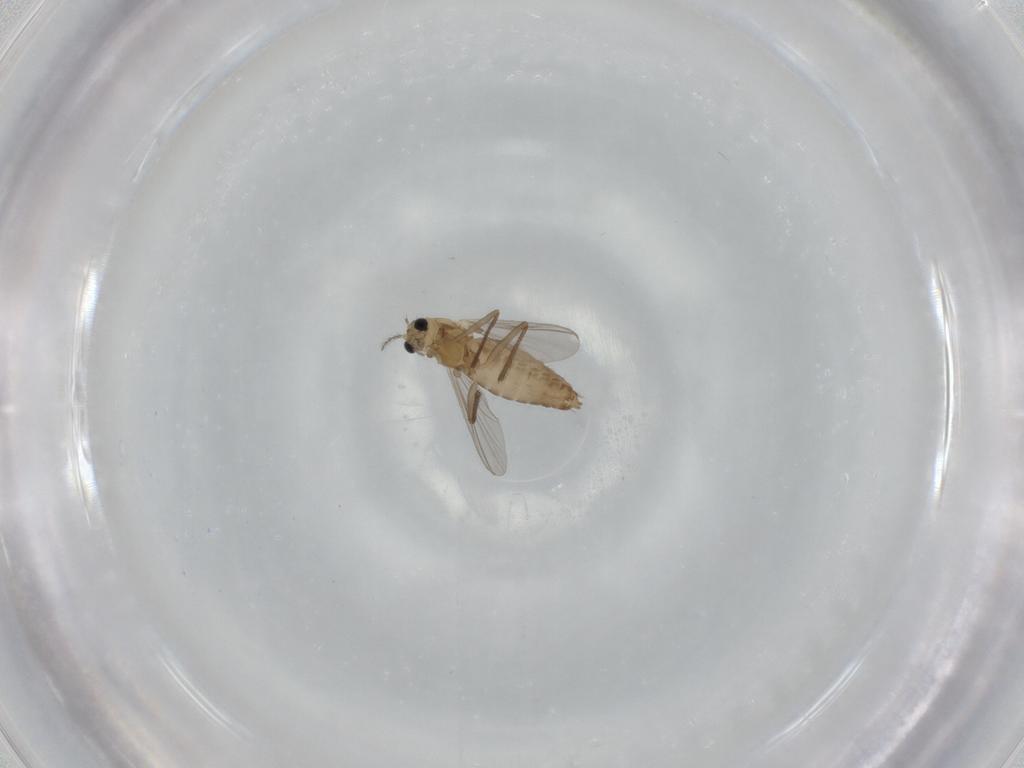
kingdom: Animalia
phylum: Arthropoda
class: Insecta
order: Diptera
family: Chironomidae
